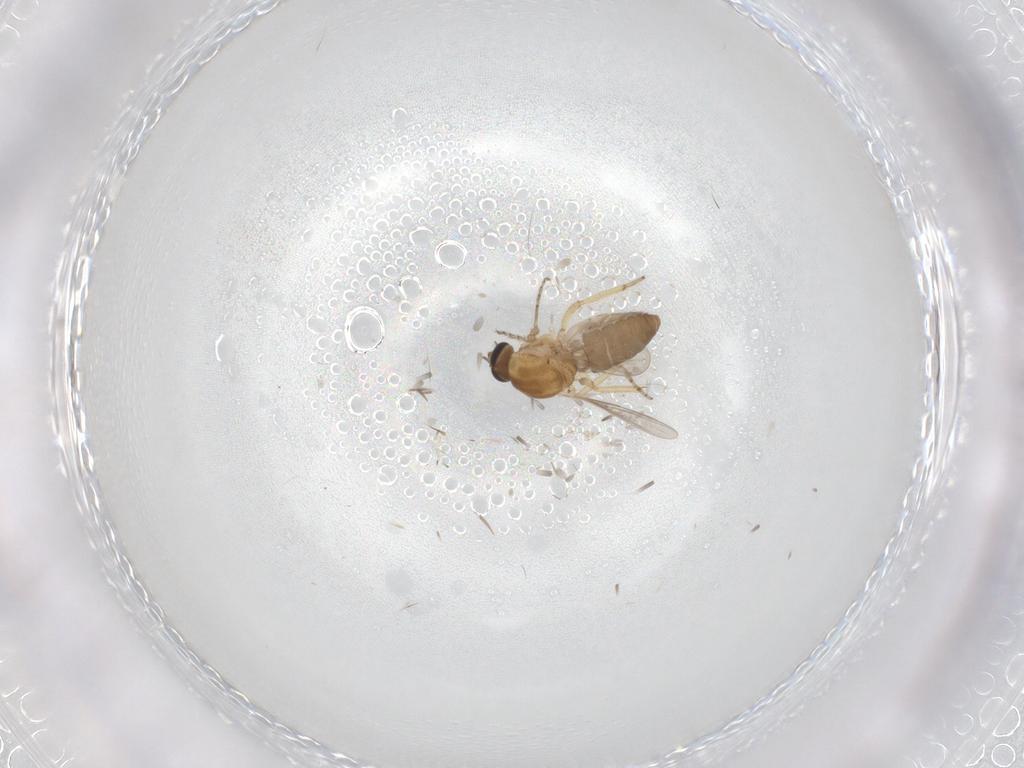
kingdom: Animalia
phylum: Arthropoda
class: Insecta
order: Diptera
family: Ceratopogonidae
